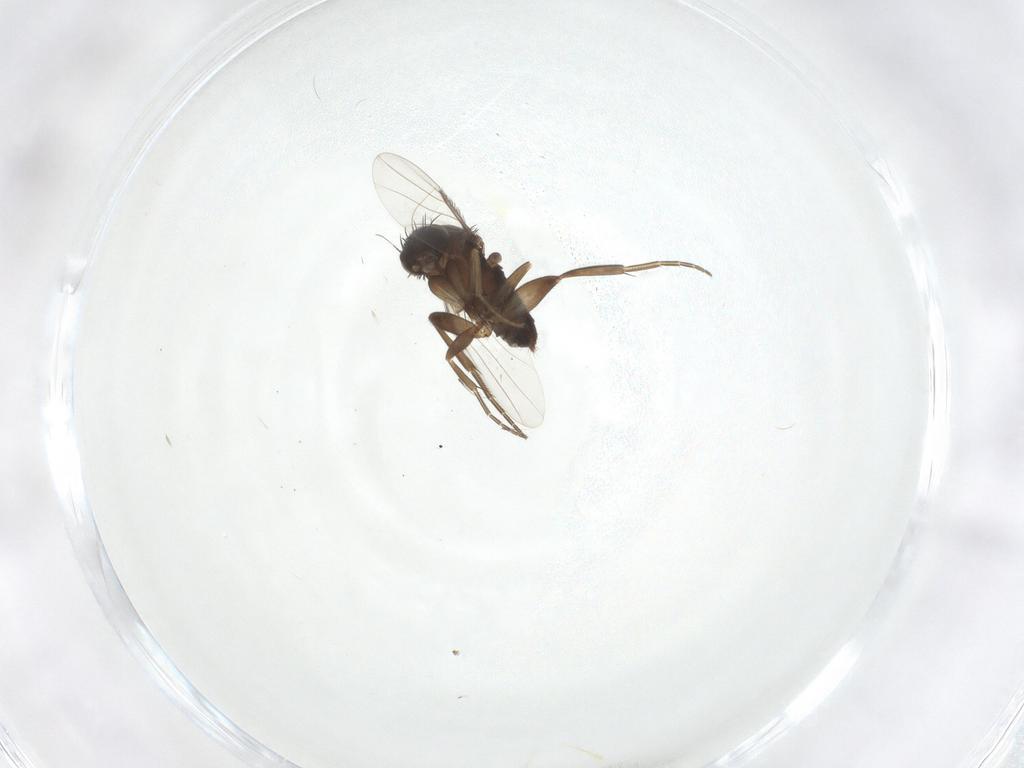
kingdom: Animalia
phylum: Arthropoda
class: Insecta
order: Diptera
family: Phoridae
